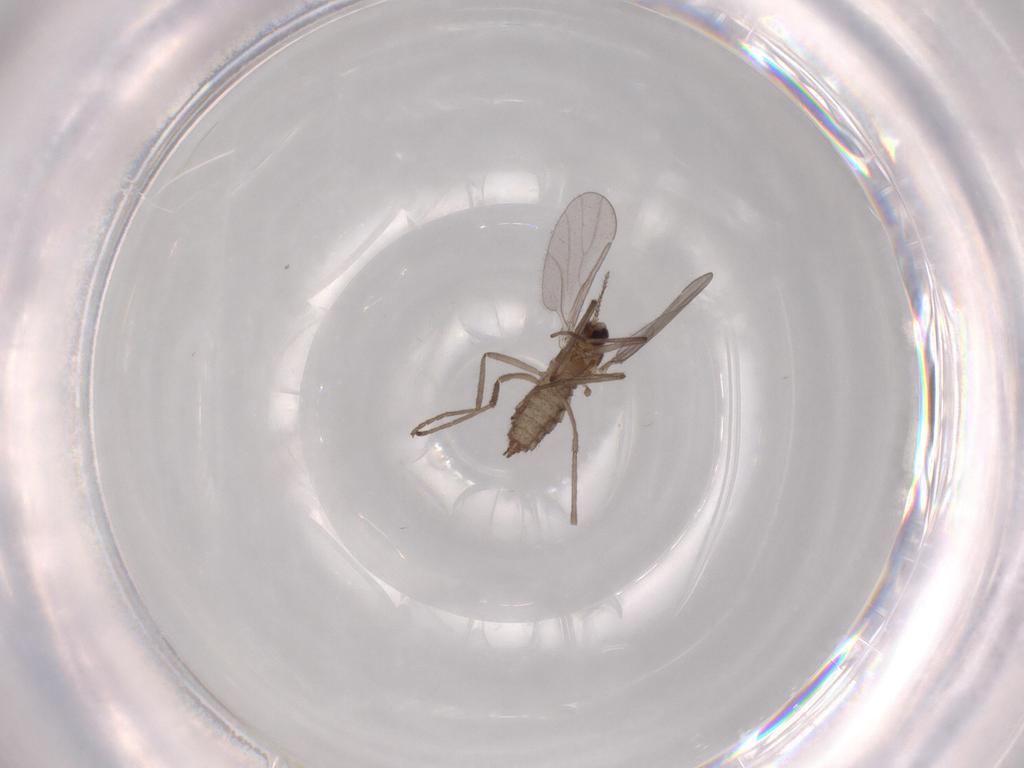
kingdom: Animalia
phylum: Arthropoda
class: Insecta
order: Diptera
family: Cecidomyiidae
